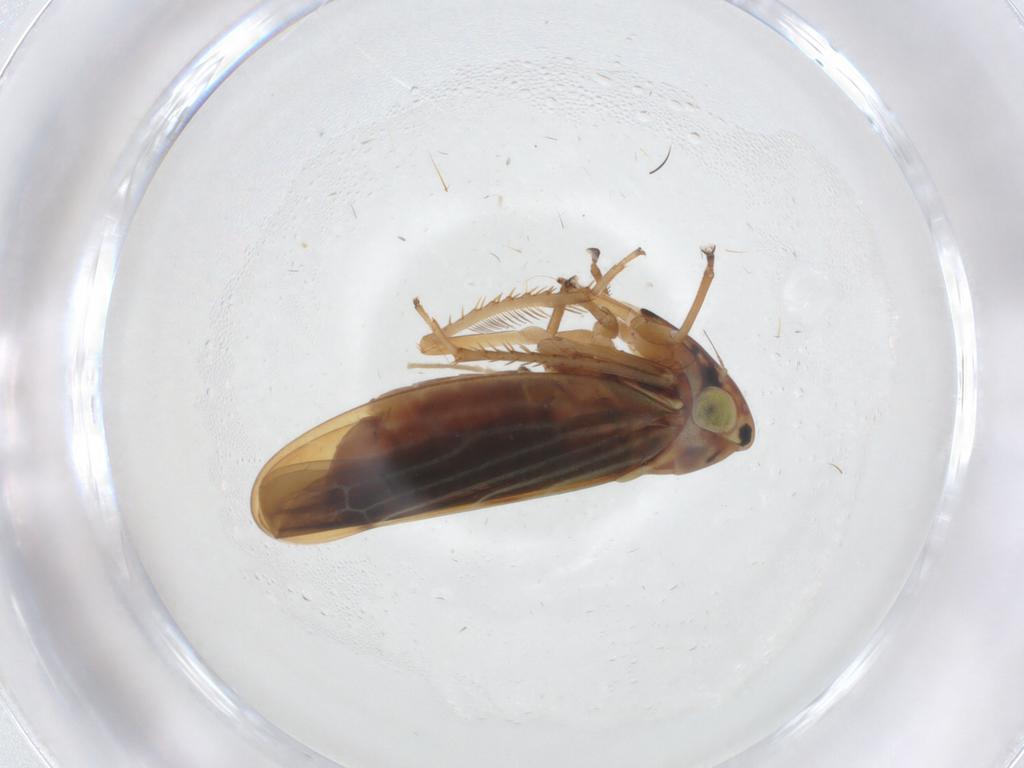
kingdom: Animalia
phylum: Arthropoda
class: Insecta
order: Hemiptera
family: Cicadellidae
